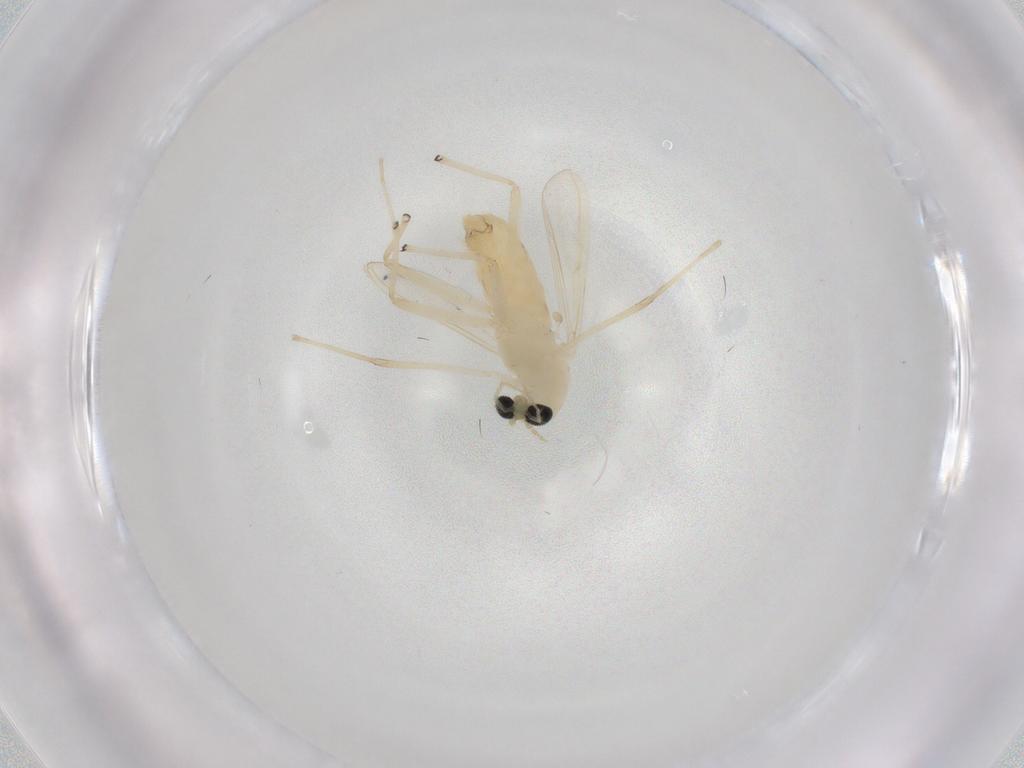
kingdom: Animalia
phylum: Arthropoda
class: Insecta
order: Diptera
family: Chironomidae
